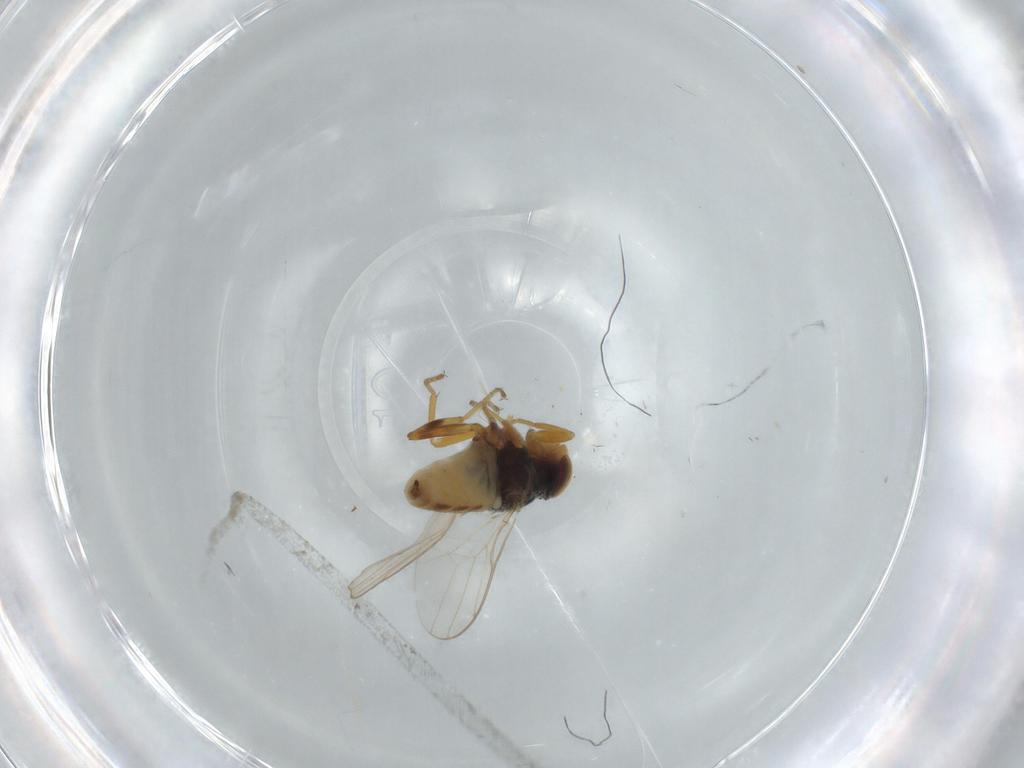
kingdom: Animalia
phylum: Arthropoda
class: Insecta
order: Diptera
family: Chloropidae
